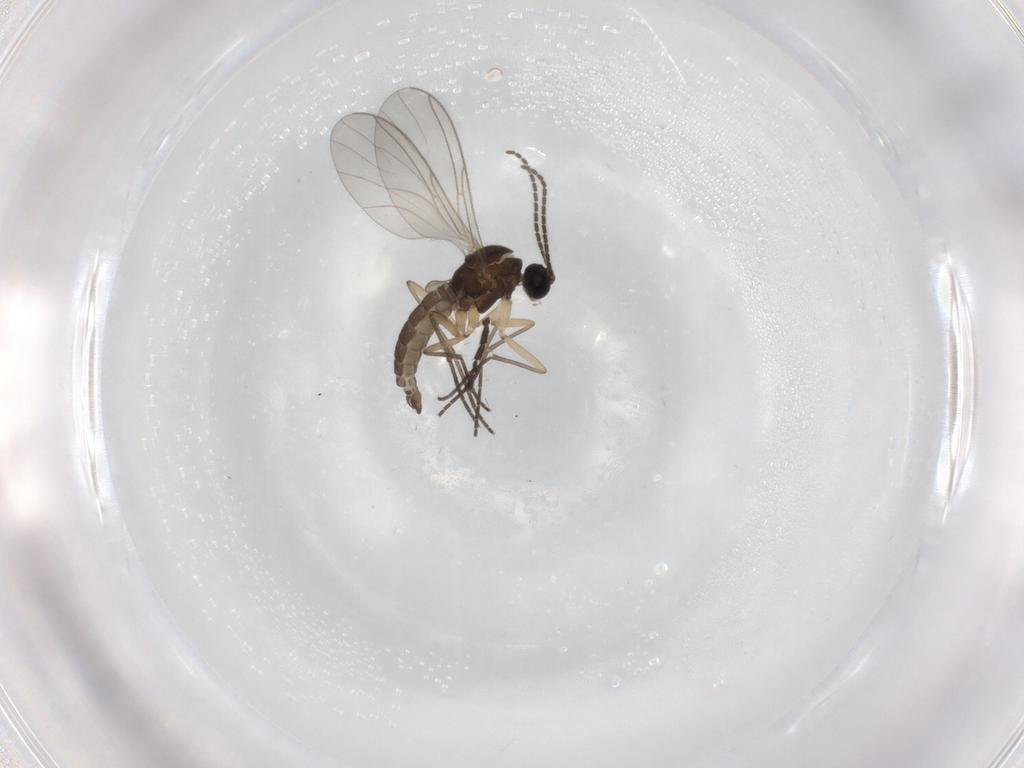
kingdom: Animalia
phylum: Arthropoda
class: Insecta
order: Diptera
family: Sciaridae
